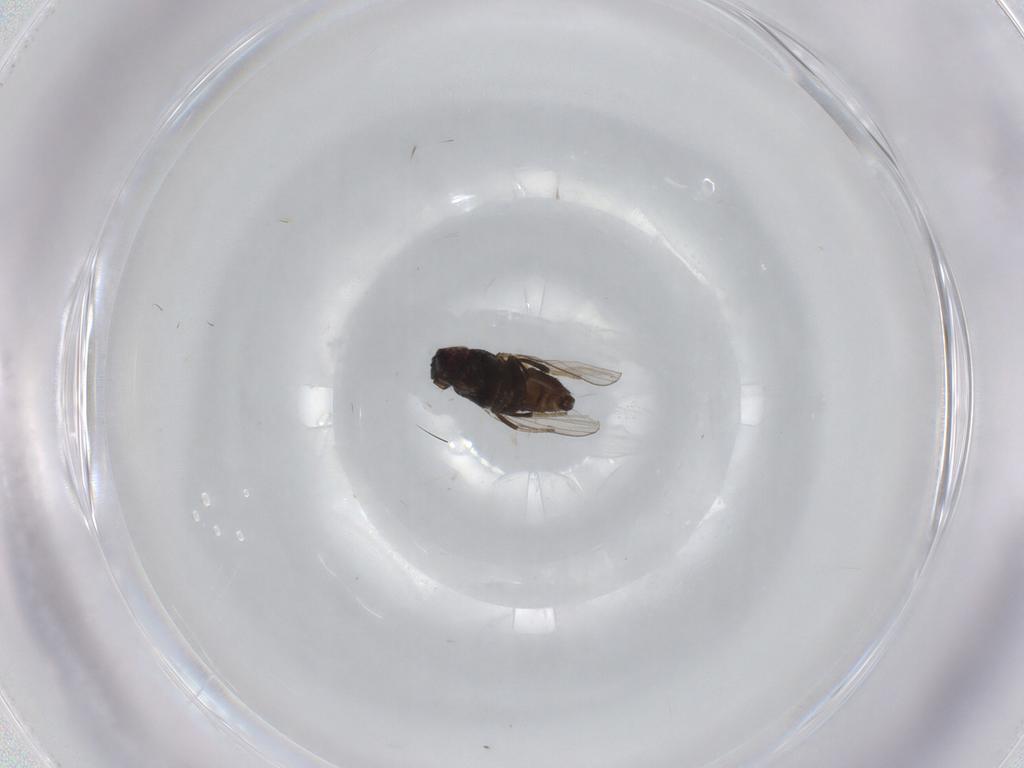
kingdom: Animalia
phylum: Arthropoda
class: Insecta
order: Diptera
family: Milichiidae
